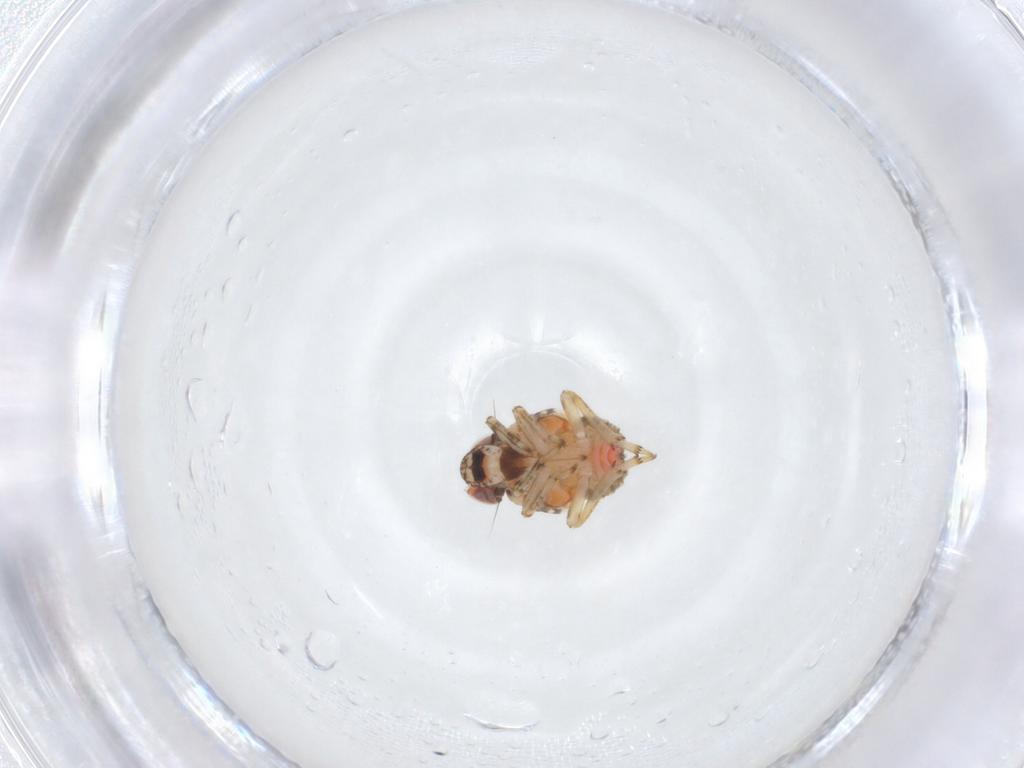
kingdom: Animalia
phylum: Arthropoda
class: Insecta
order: Hemiptera
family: Issidae
